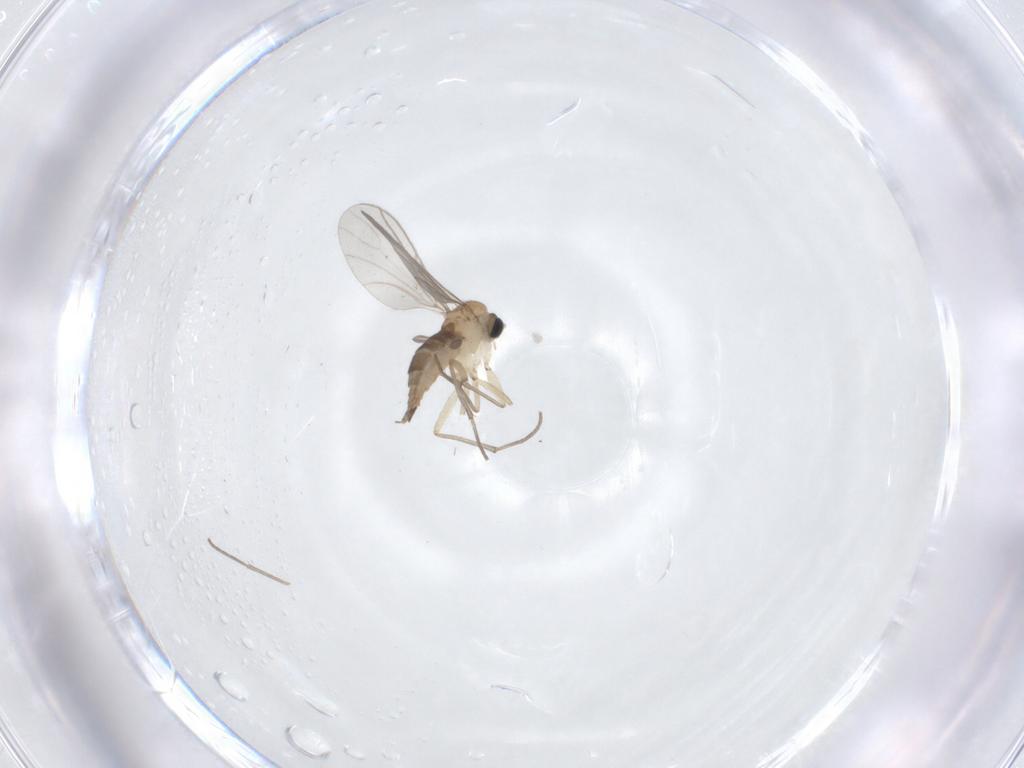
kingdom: Animalia
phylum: Arthropoda
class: Insecta
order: Diptera
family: Sciaridae
